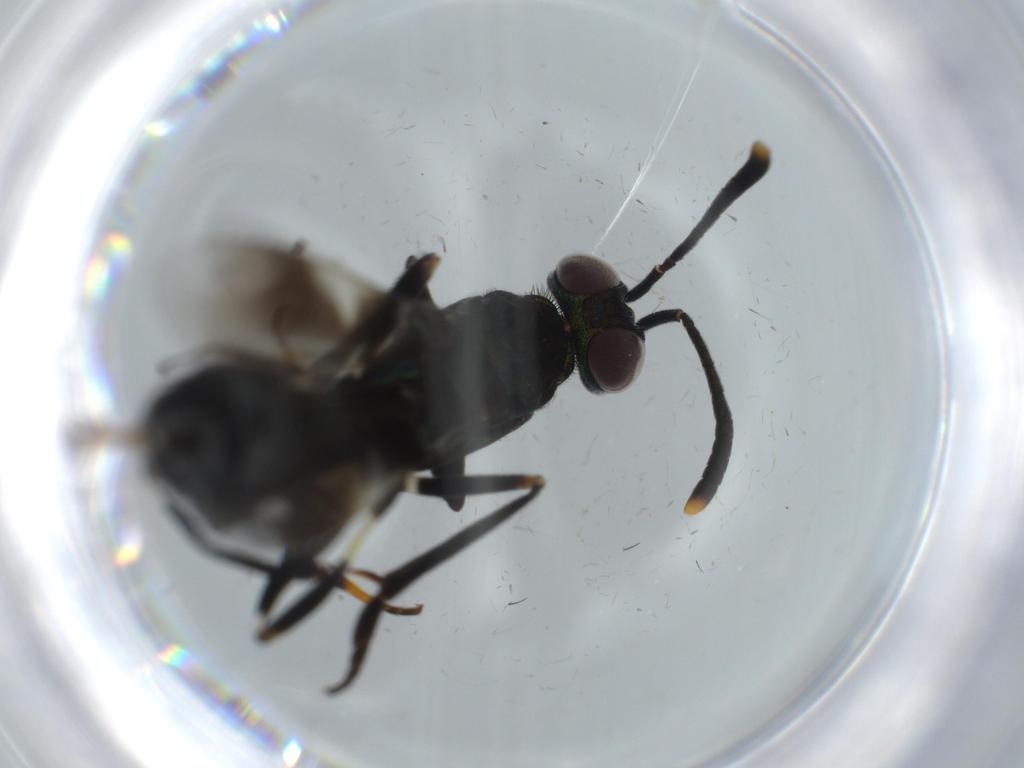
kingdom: Animalia
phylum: Arthropoda
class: Insecta
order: Hymenoptera
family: Eupelmidae
